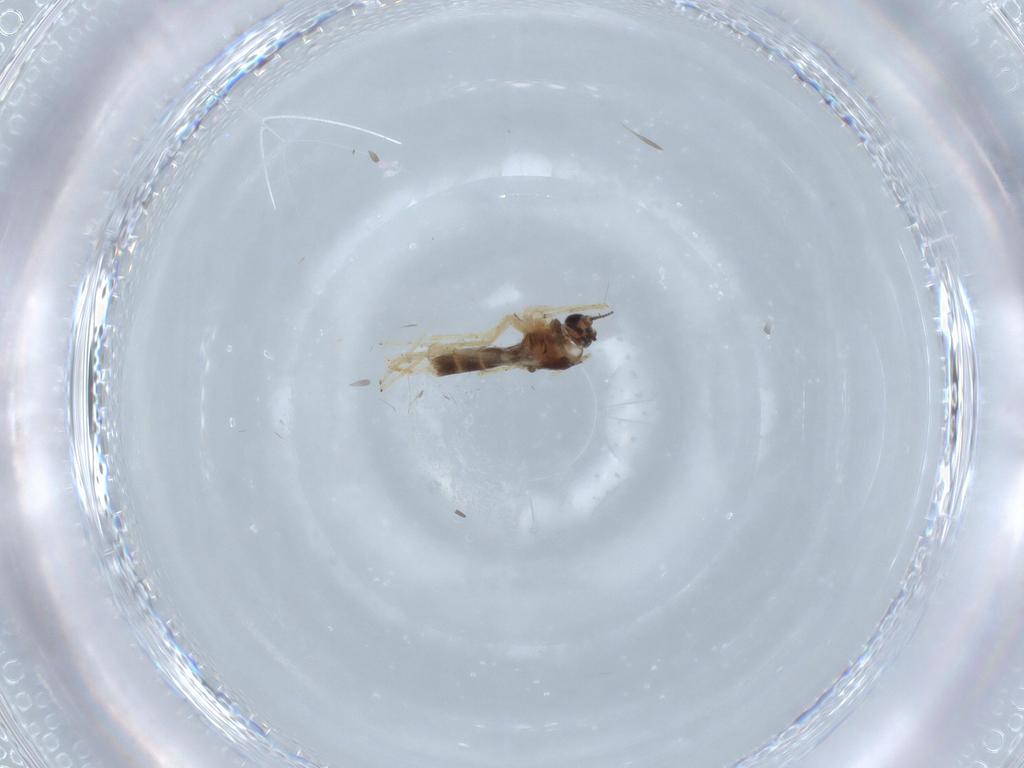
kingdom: Animalia
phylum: Arthropoda
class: Insecta
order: Diptera
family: Chironomidae
